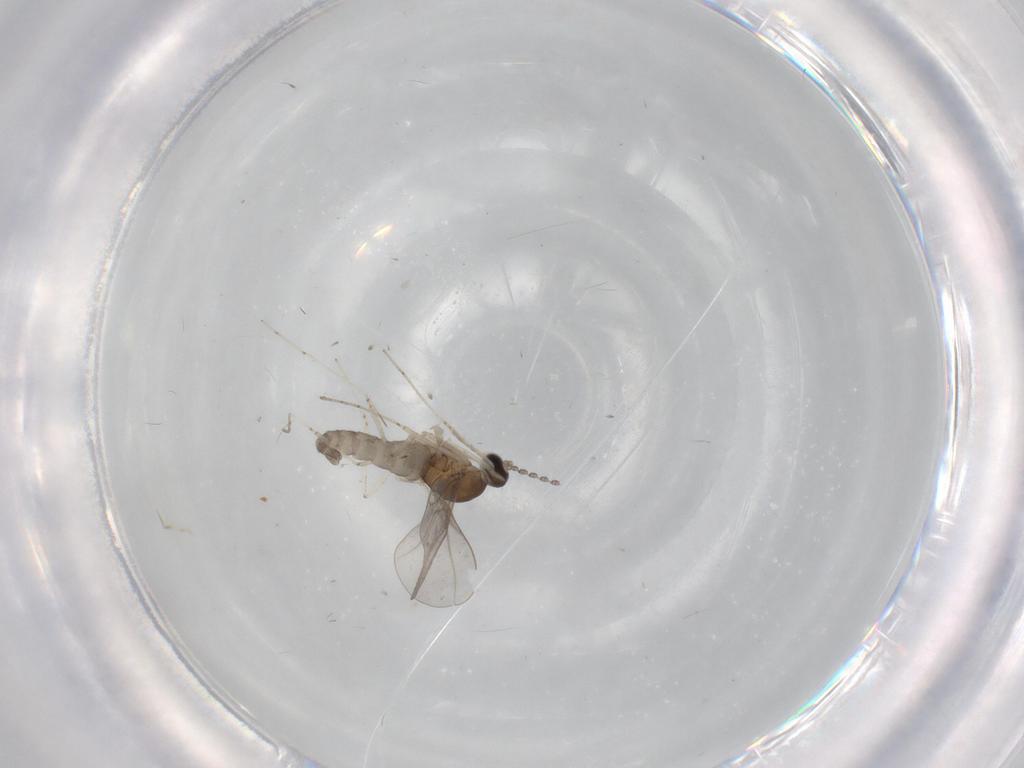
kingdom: Animalia
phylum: Arthropoda
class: Insecta
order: Diptera
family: Cecidomyiidae
